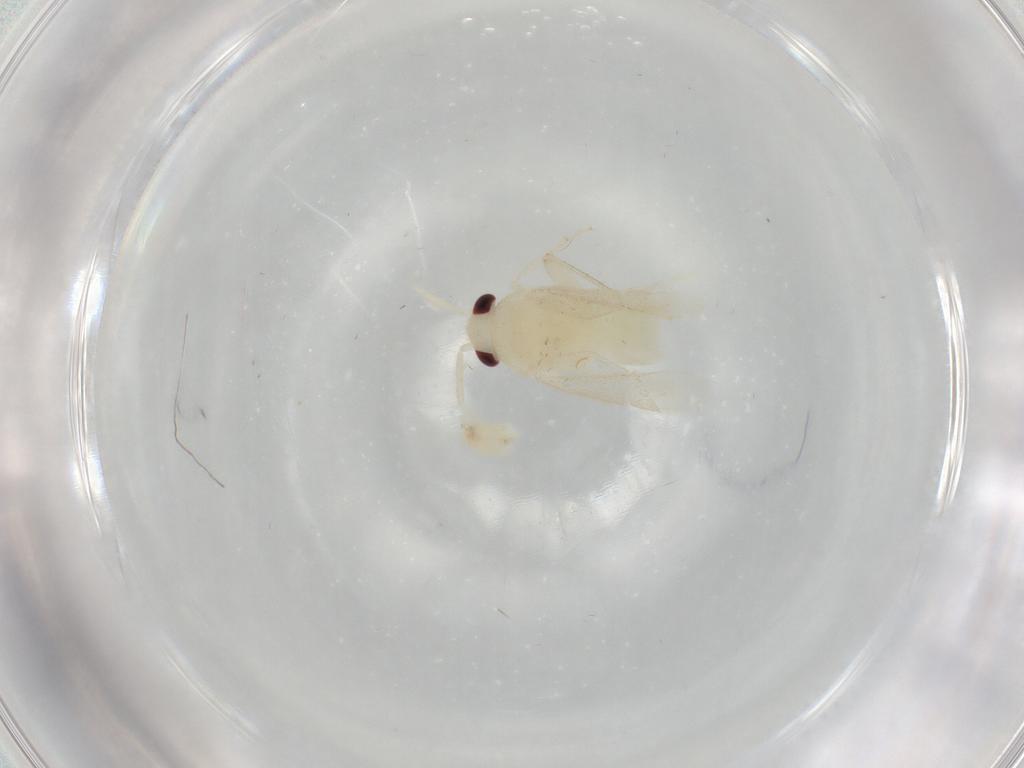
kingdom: Animalia
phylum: Arthropoda
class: Insecta
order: Hemiptera
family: Miridae
